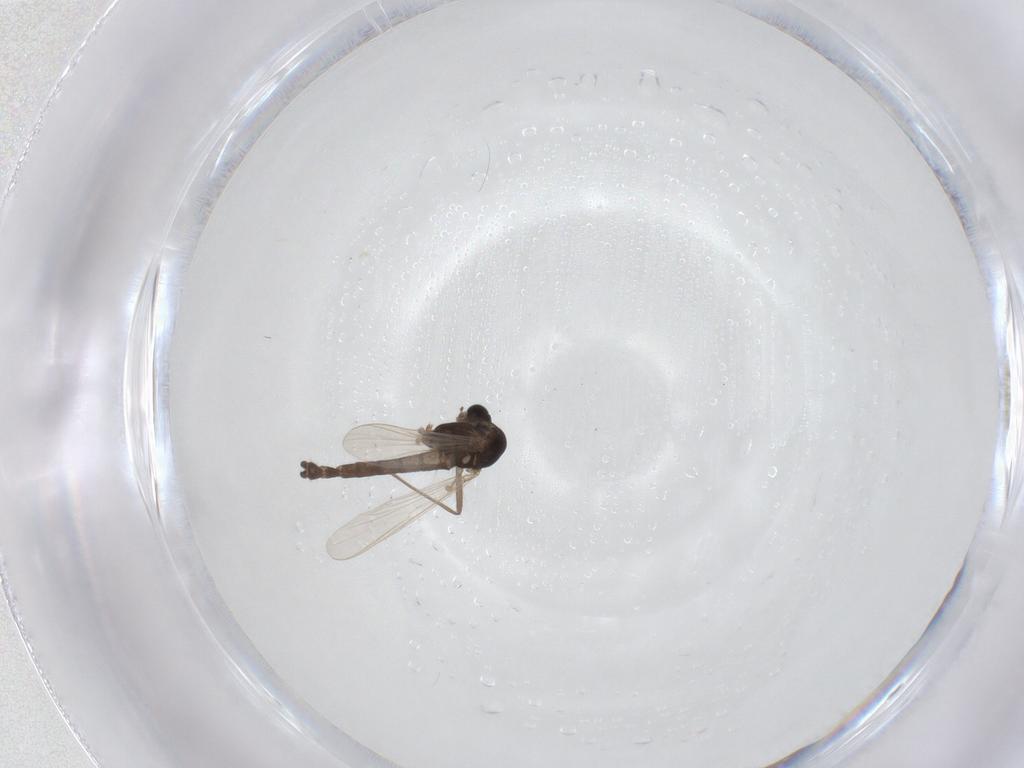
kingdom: Animalia
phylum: Arthropoda
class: Insecta
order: Diptera
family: Chironomidae
